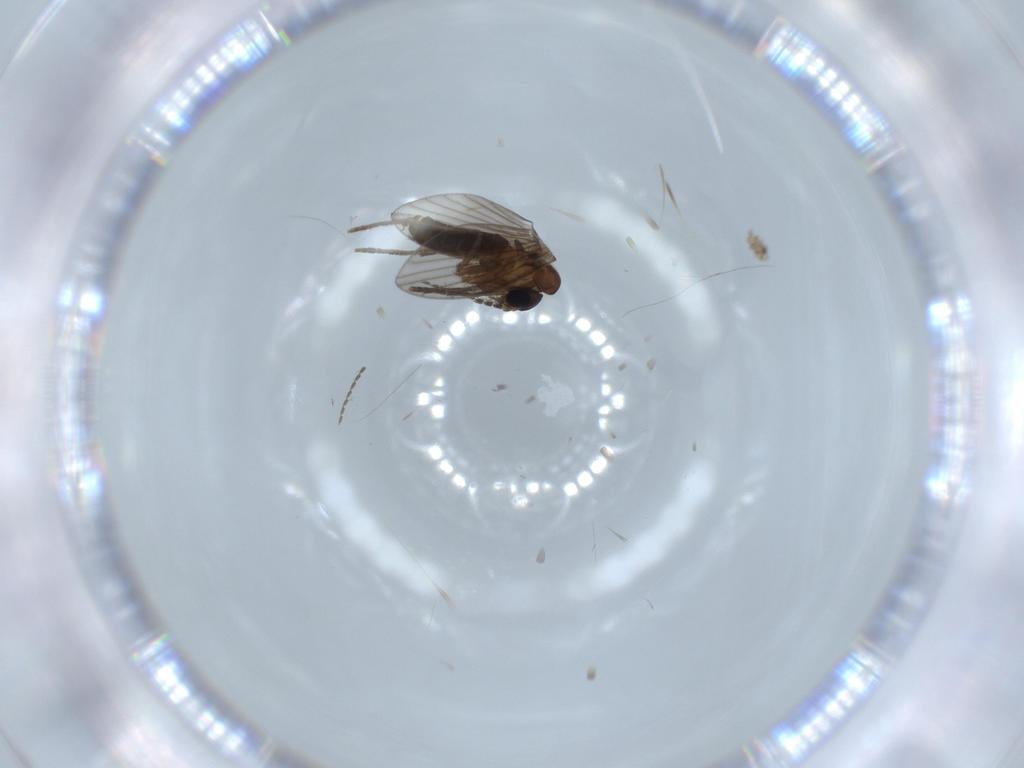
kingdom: Animalia
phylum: Arthropoda
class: Insecta
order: Diptera
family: Psychodidae
